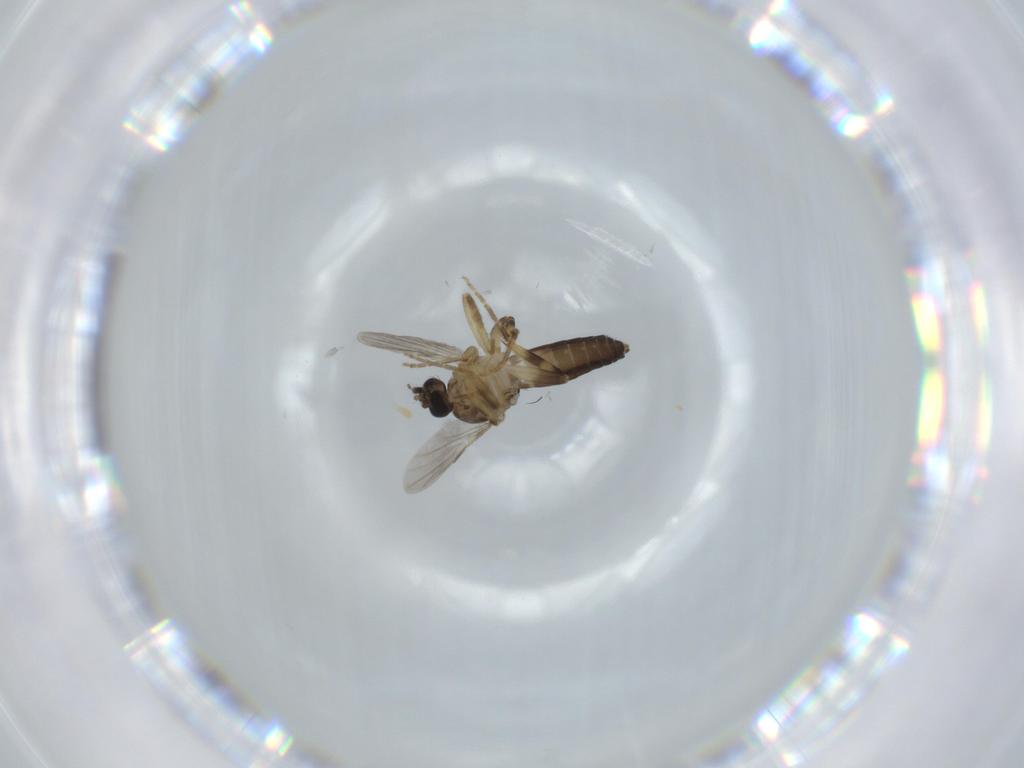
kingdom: Animalia
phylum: Arthropoda
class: Insecta
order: Diptera
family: Ceratopogonidae
